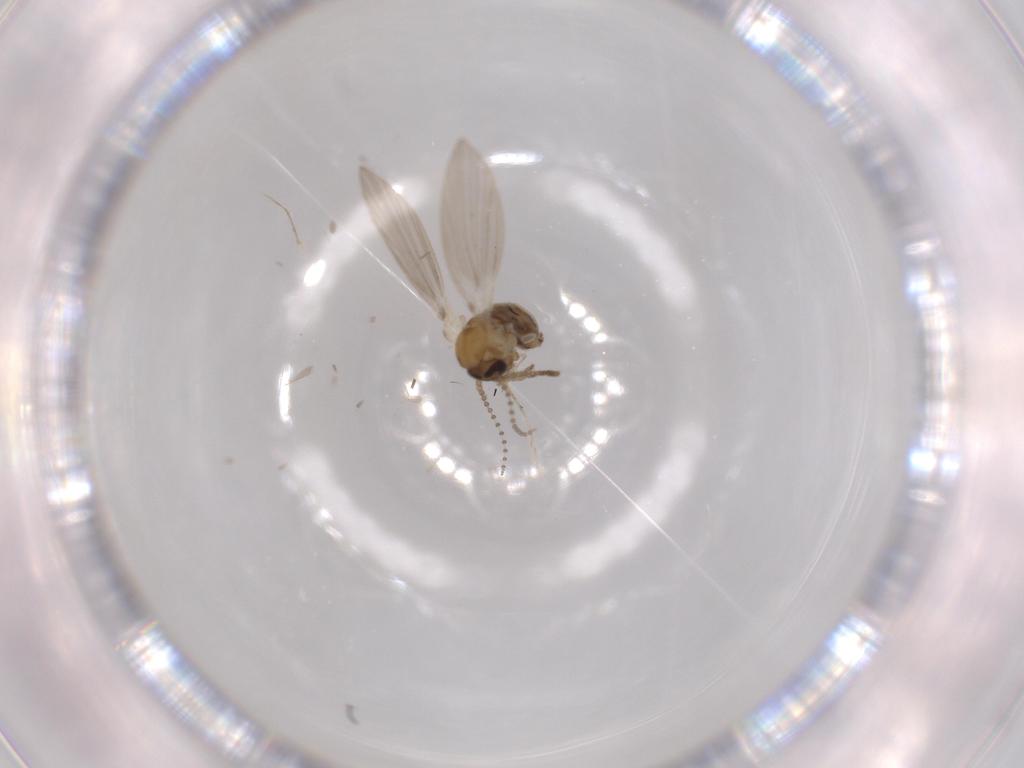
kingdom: Animalia
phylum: Arthropoda
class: Insecta
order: Diptera
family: Psychodidae
